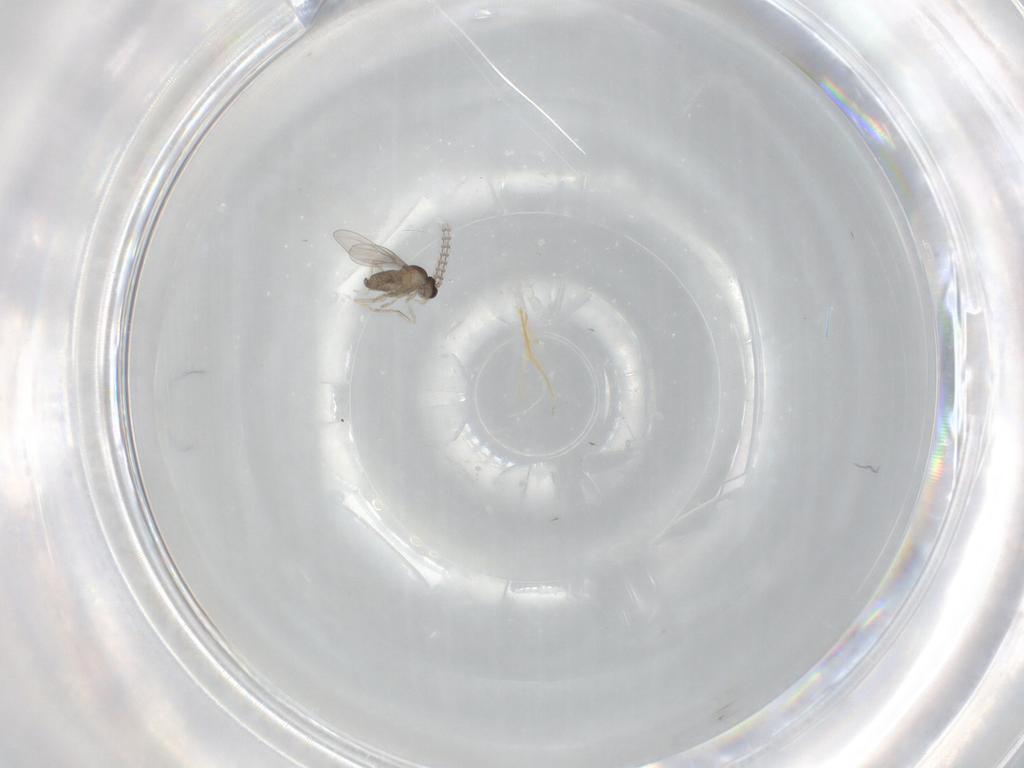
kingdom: Animalia
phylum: Arthropoda
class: Insecta
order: Diptera
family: Cecidomyiidae
